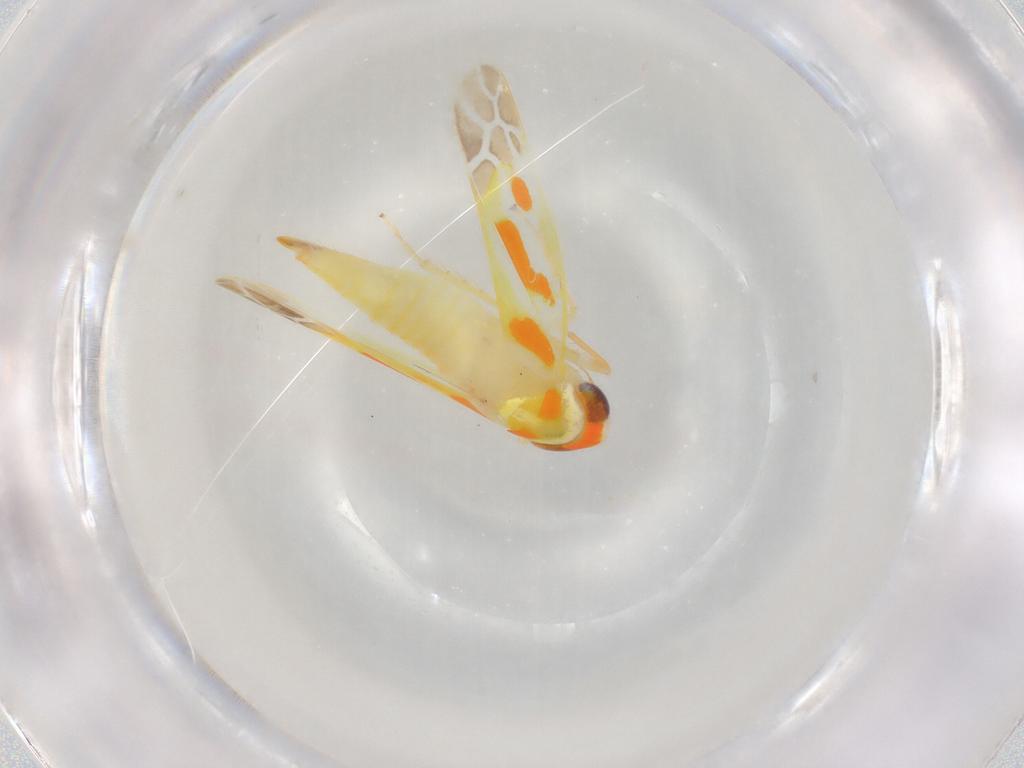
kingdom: Animalia
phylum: Arthropoda
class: Insecta
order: Hemiptera
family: Cicadellidae
